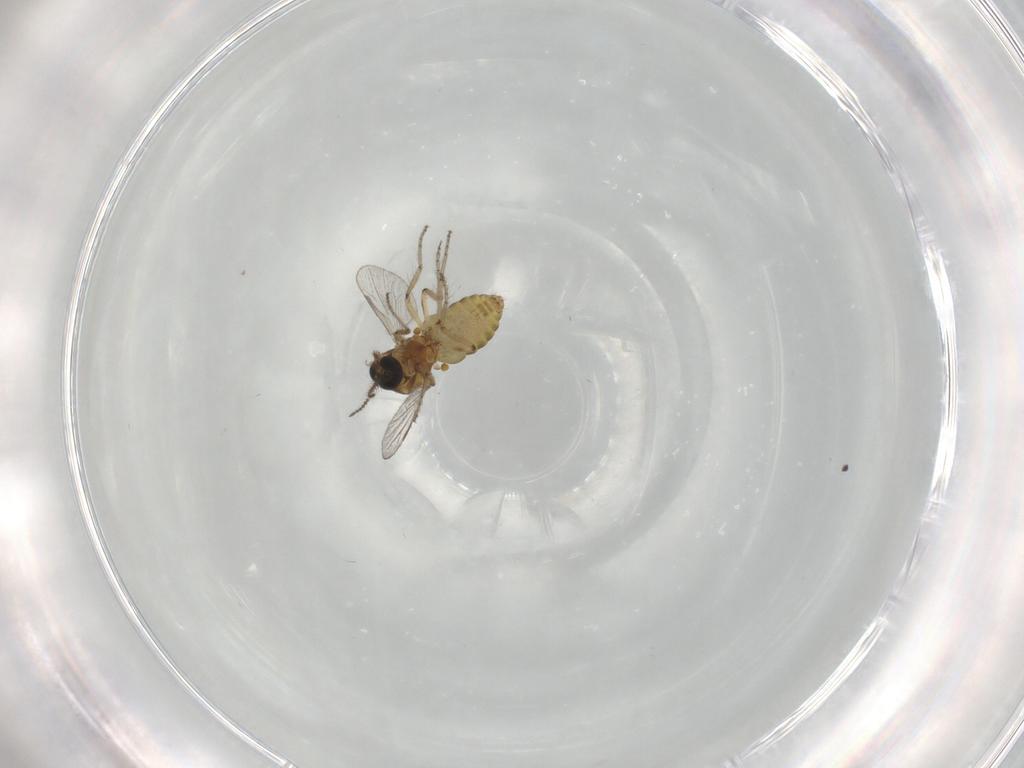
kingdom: Animalia
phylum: Arthropoda
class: Insecta
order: Diptera
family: Ceratopogonidae
